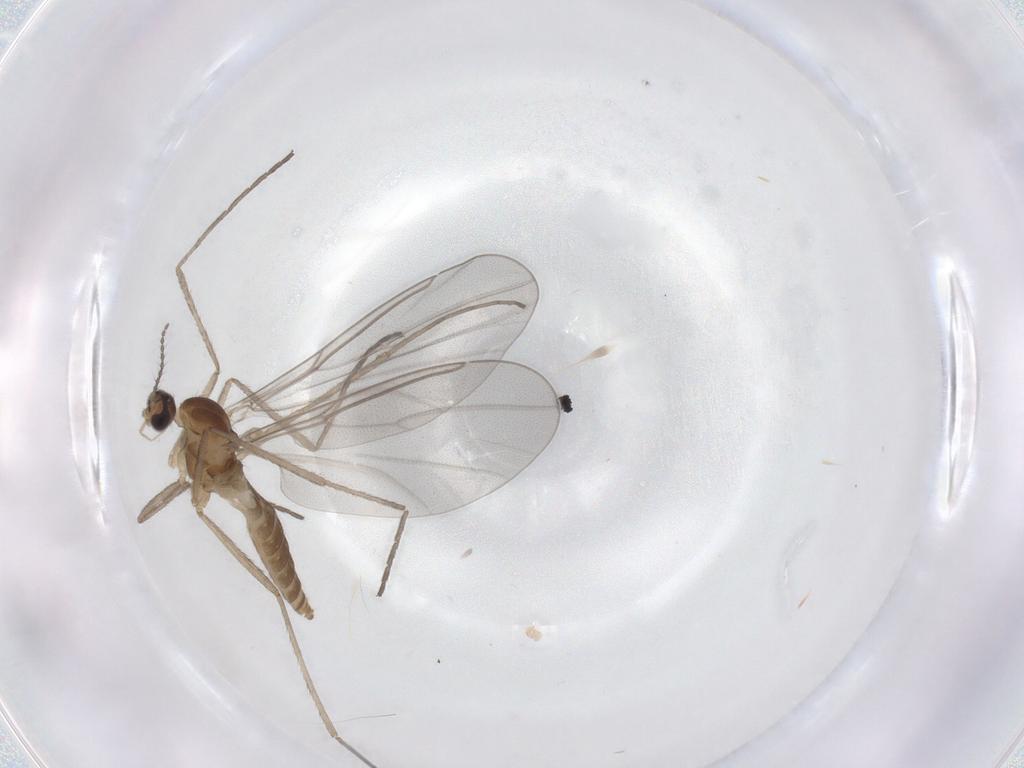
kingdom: Animalia
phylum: Arthropoda
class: Insecta
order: Diptera
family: Cecidomyiidae
